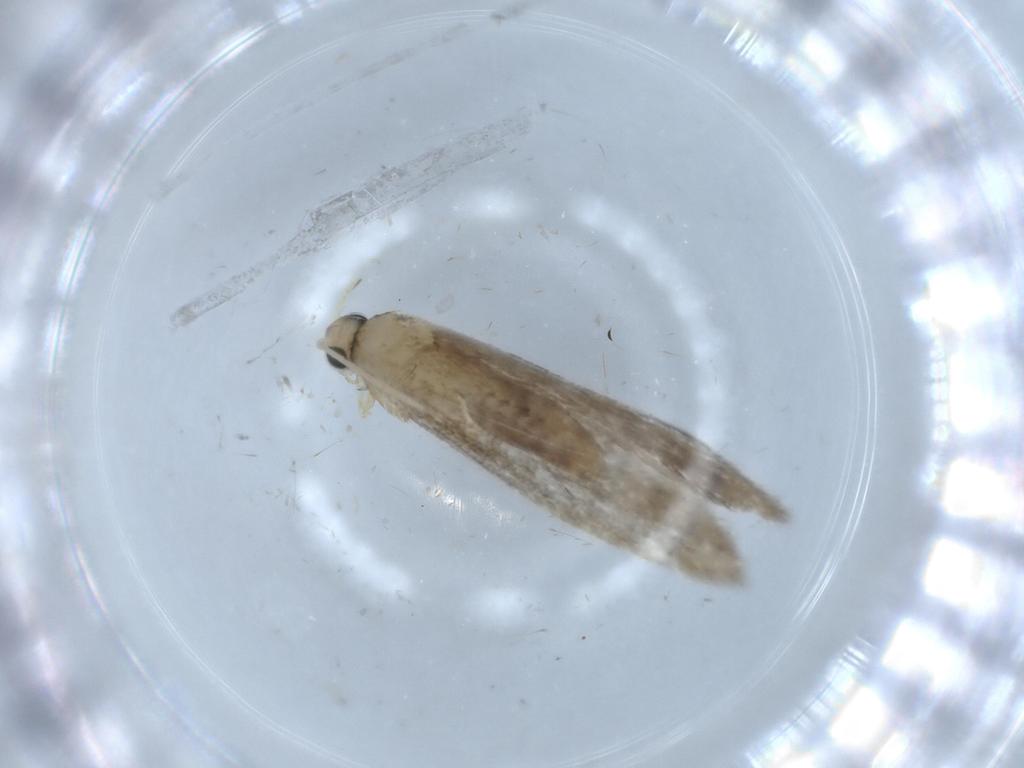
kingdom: Animalia
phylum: Arthropoda
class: Insecta
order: Lepidoptera
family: Tineidae
